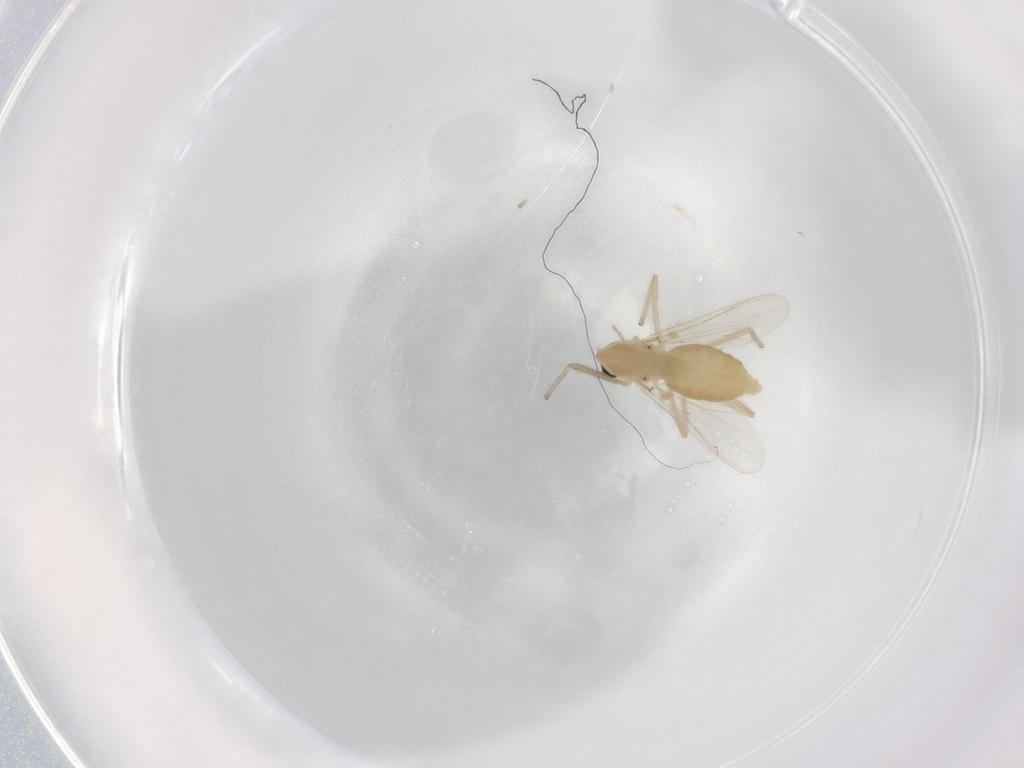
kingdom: Animalia
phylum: Arthropoda
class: Insecta
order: Diptera
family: Chironomidae
